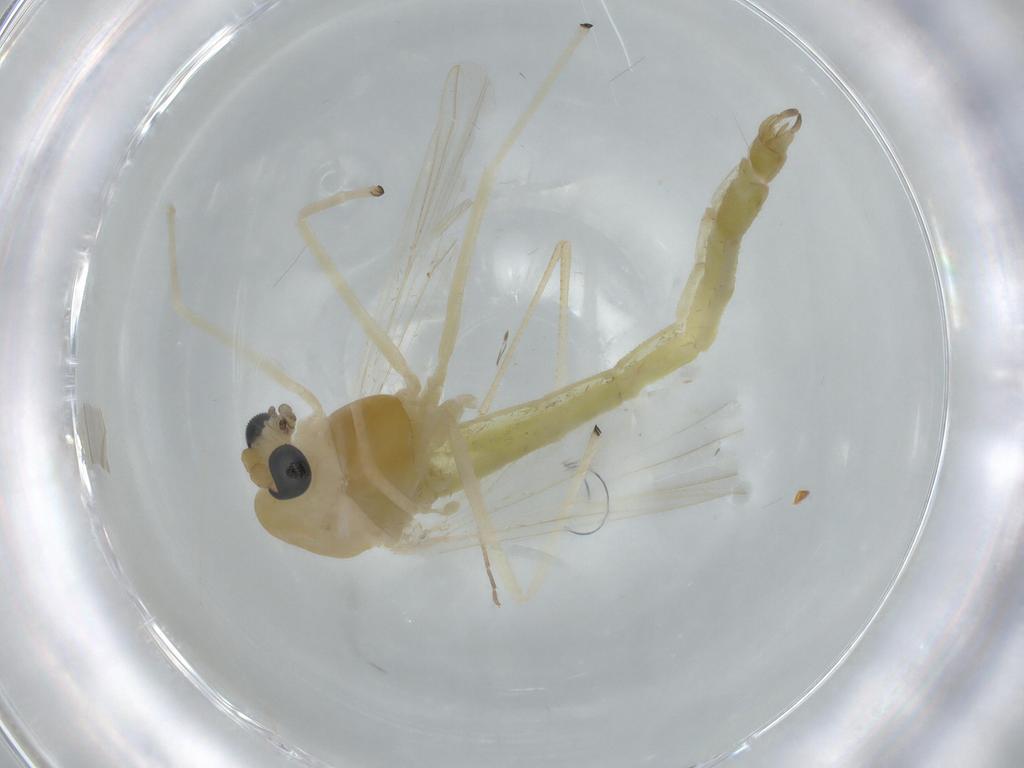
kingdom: Animalia
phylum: Arthropoda
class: Insecta
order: Diptera
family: Chironomidae
